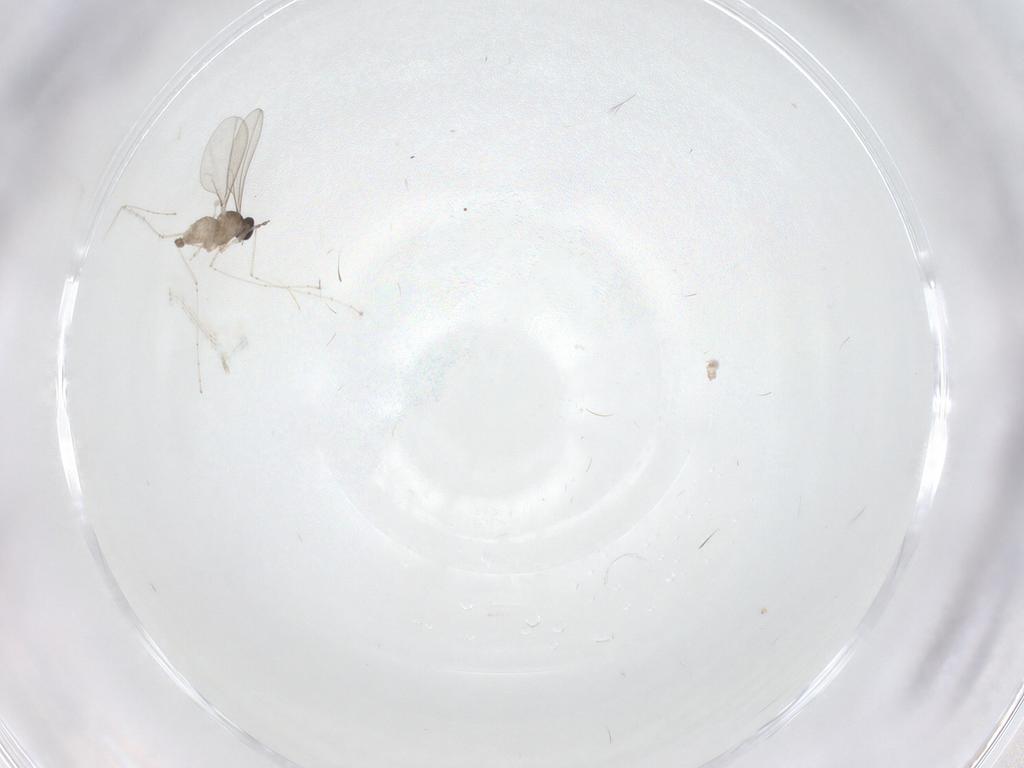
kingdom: Animalia
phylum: Arthropoda
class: Insecta
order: Diptera
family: Cecidomyiidae
